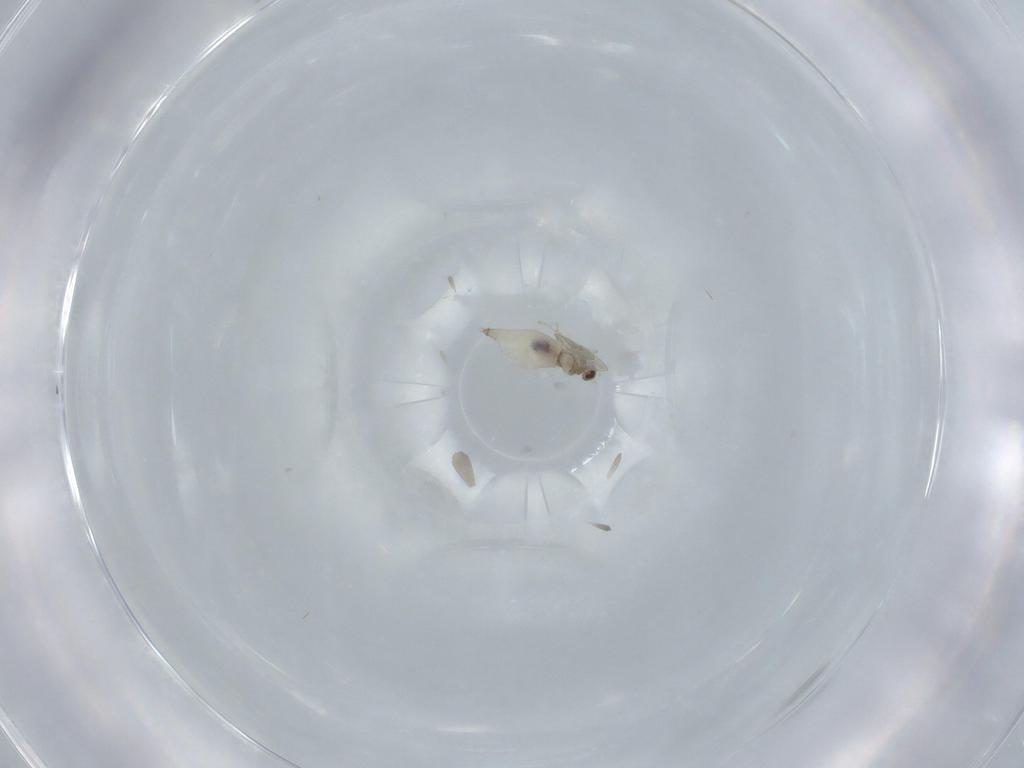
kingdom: Animalia
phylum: Arthropoda
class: Insecta
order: Diptera
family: Cecidomyiidae
